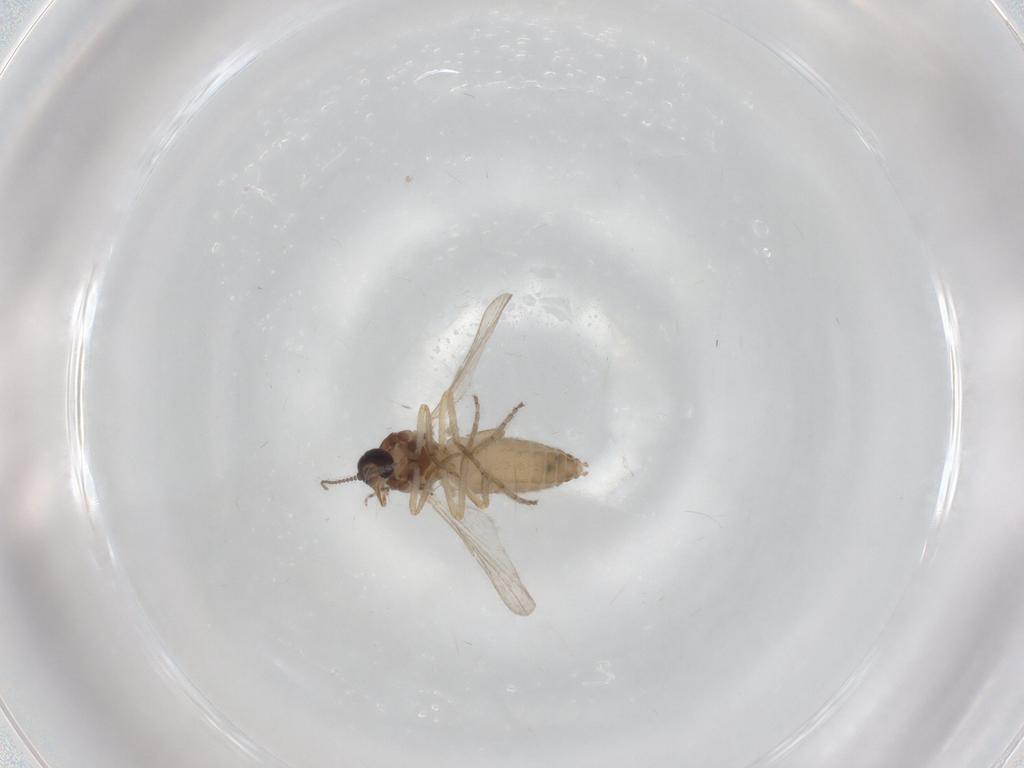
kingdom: Animalia
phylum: Arthropoda
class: Insecta
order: Diptera
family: Ceratopogonidae
